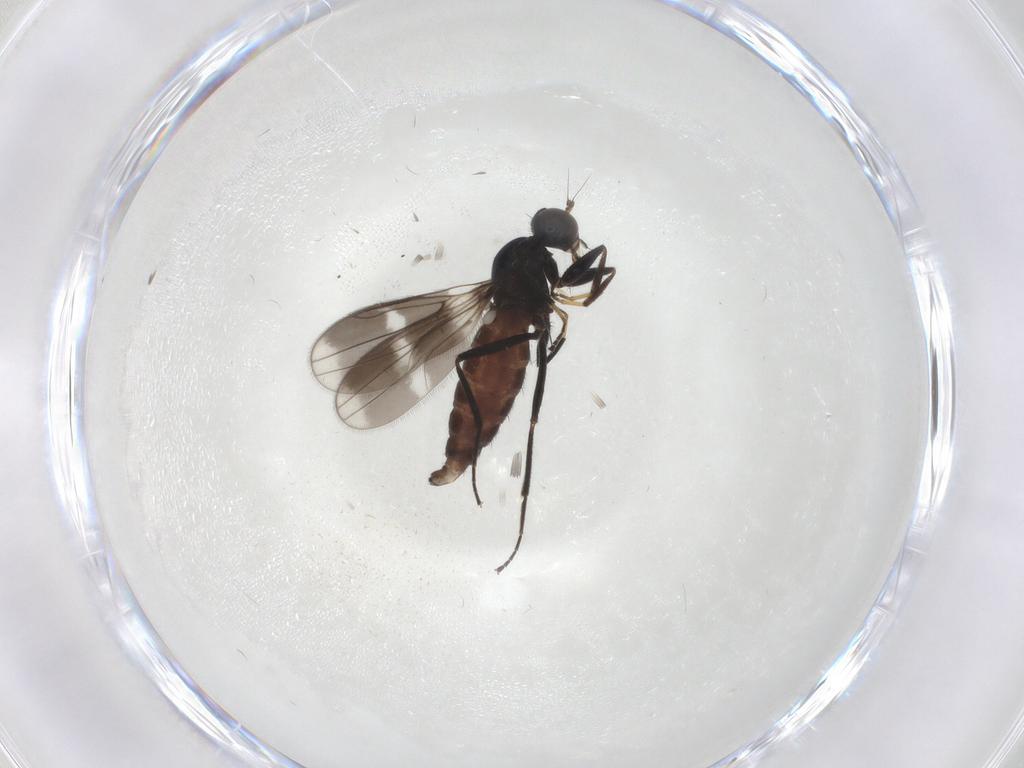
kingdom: Animalia
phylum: Arthropoda
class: Insecta
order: Diptera
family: Hybotidae
